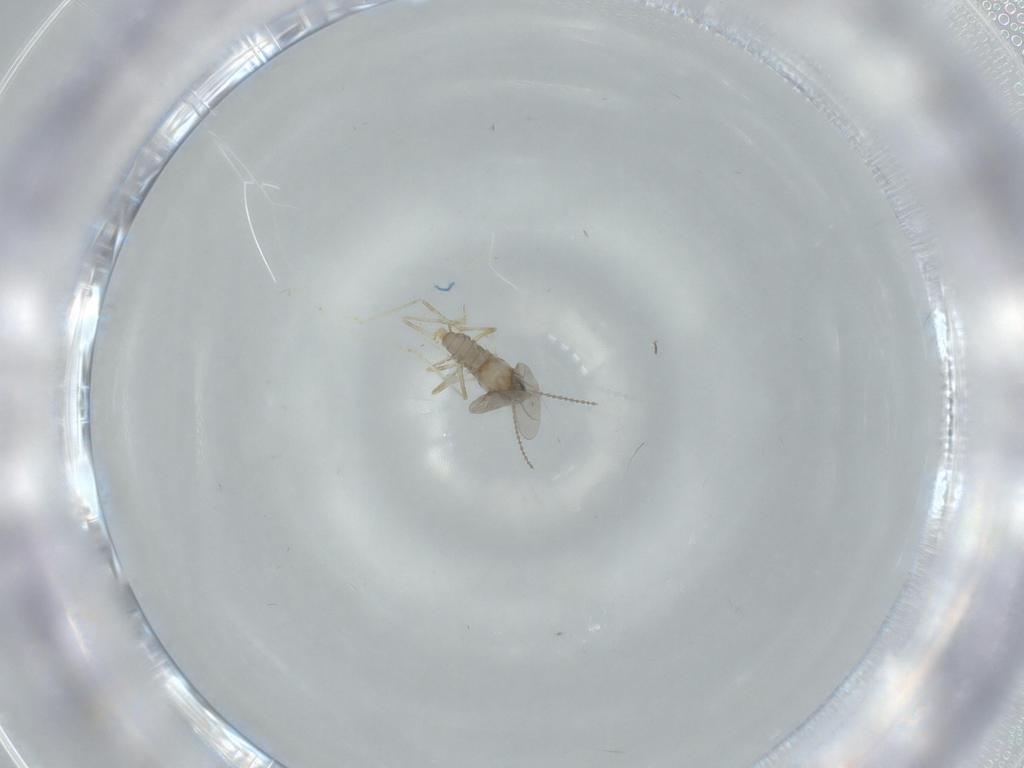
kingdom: Animalia
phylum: Arthropoda
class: Insecta
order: Diptera
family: Cecidomyiidae
